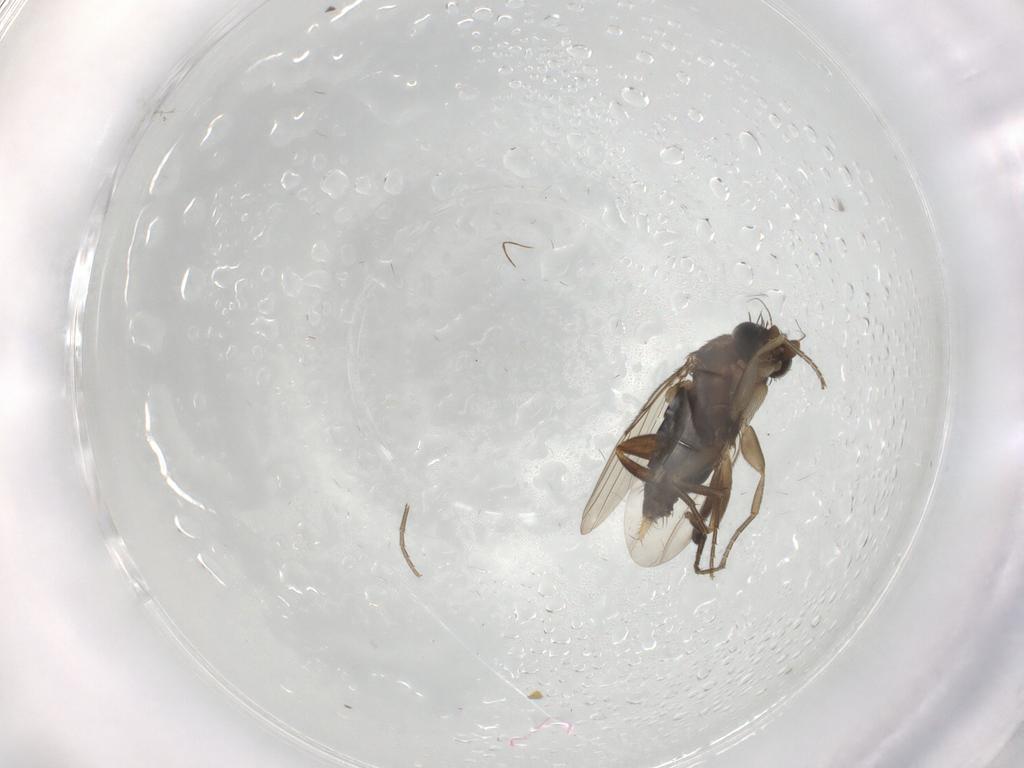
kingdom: Animalia
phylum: Arthropoda
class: Insecta
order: Diptera
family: Phoridae
